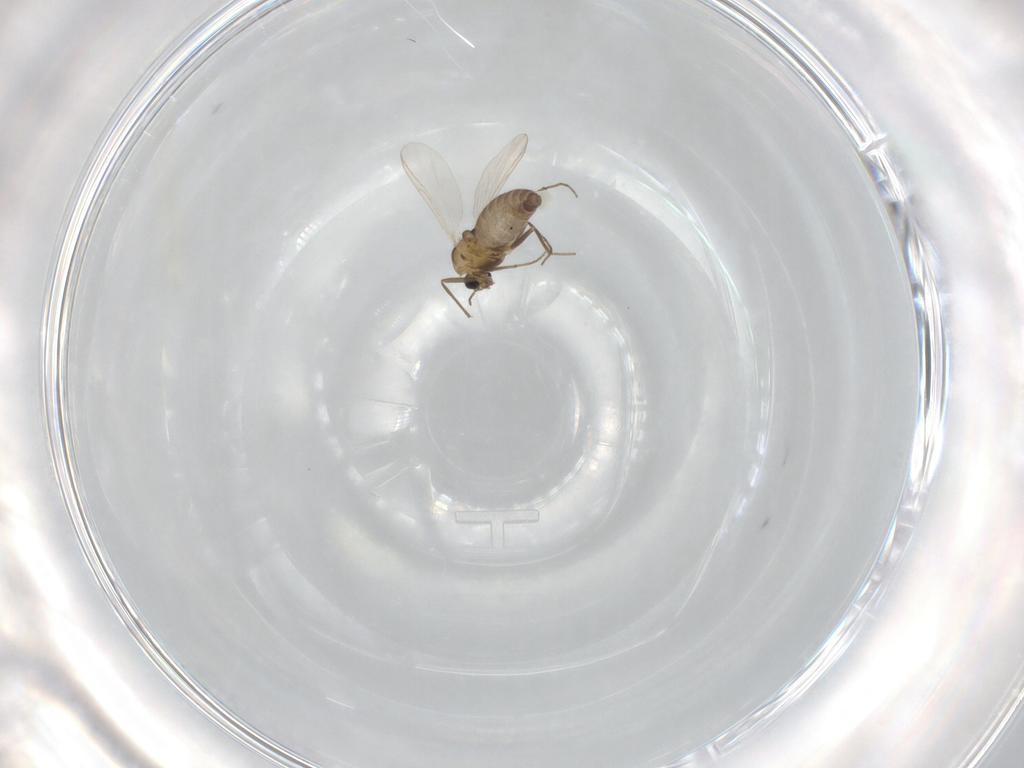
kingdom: Animalia
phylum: Arthropoda
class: Insecta
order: Diptera
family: Chironomidae
